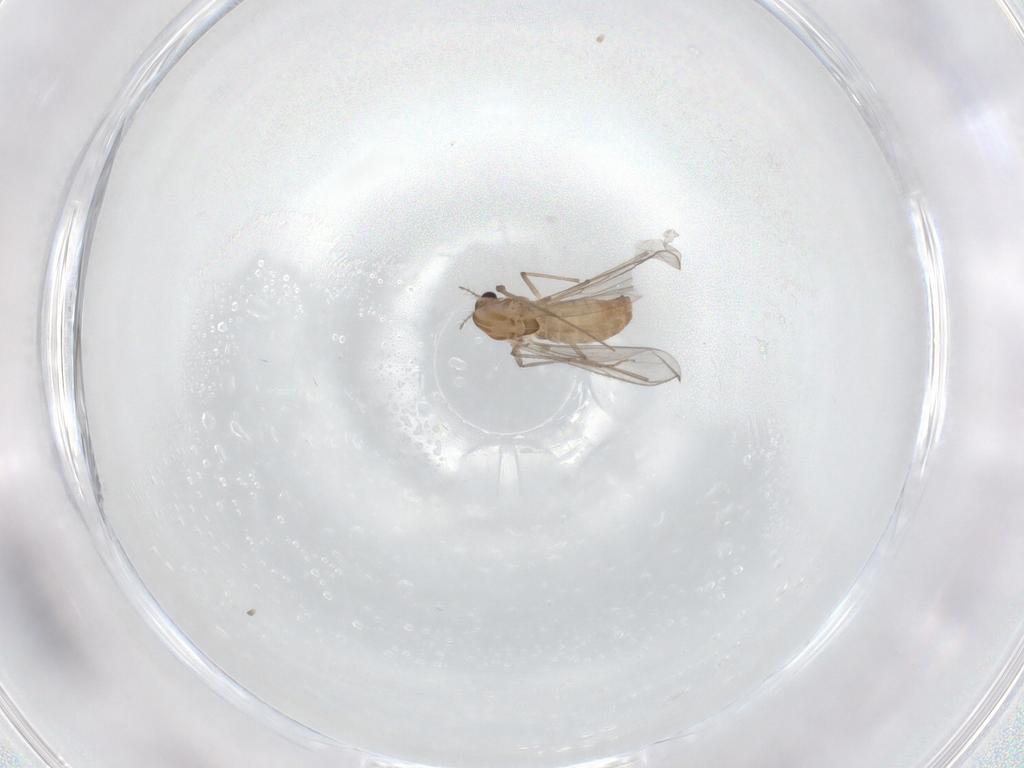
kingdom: Animalia
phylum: Arthropoda
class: Insecta
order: Diptera
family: Chironomidae
